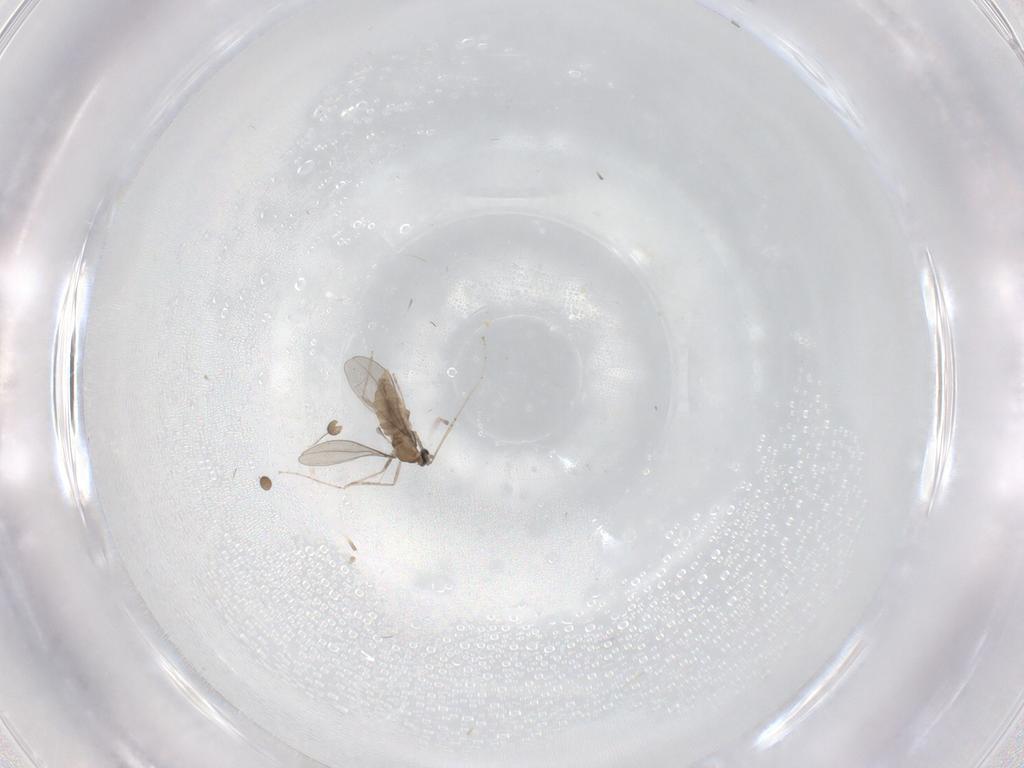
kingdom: Animalia
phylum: Arthropoda
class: Insecta
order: Diptera
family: Phoridae
